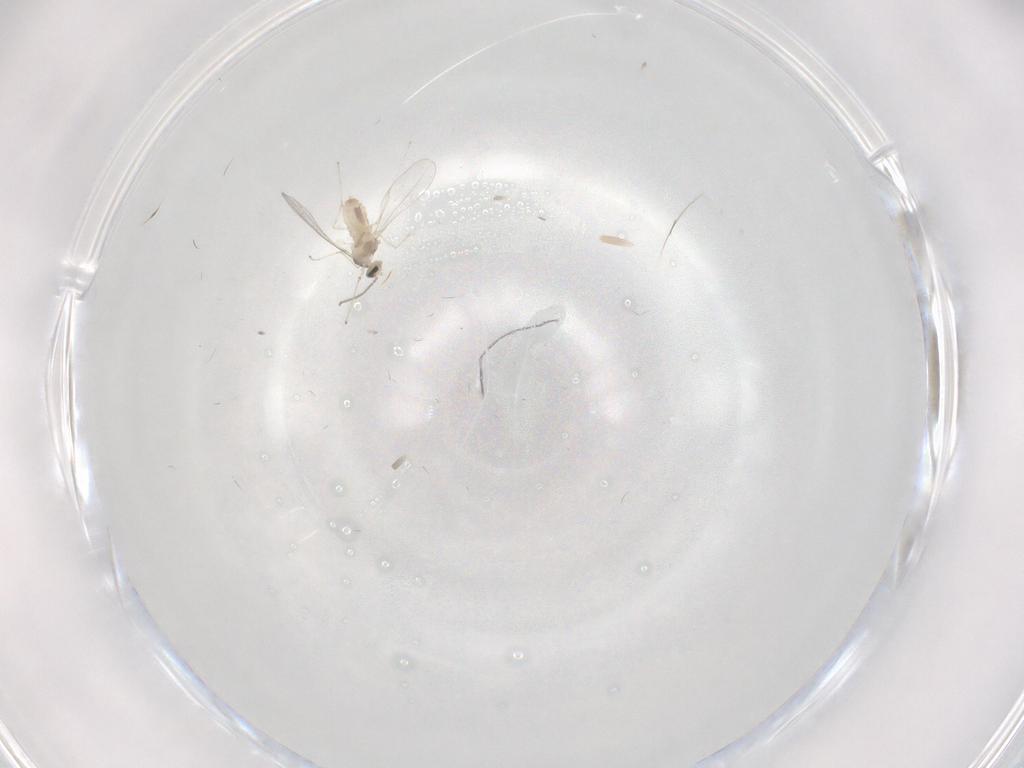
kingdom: Animalia
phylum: Arthropoda
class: Insecta
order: Diptera
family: Cecidomyiidae
